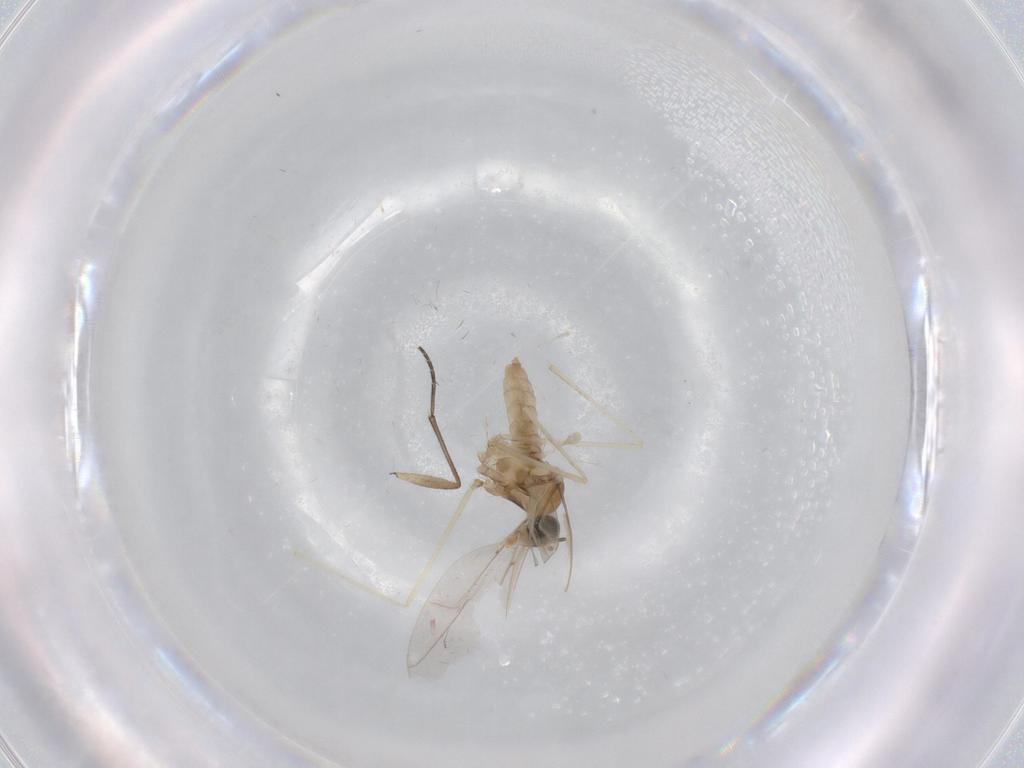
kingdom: Animalia
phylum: Arthropoda
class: Insecta
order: Diptera
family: Cecidomyiidae
